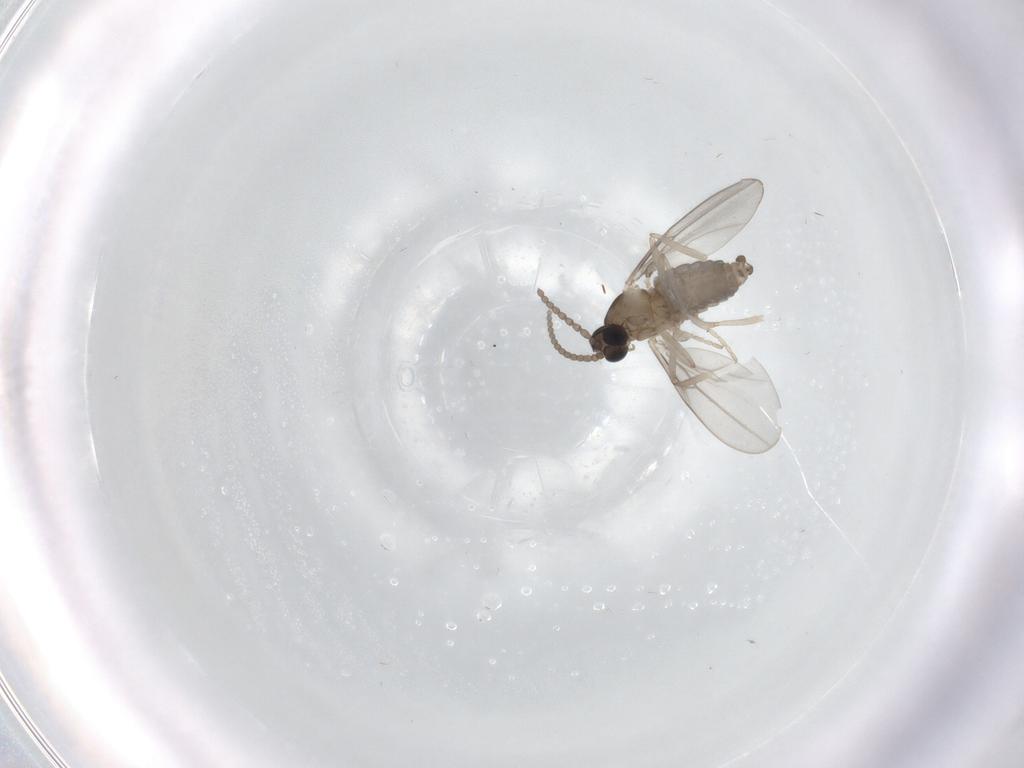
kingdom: Animalia
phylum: Arthropoda
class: Insecta
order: Diptera
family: Cecidomyiidae
